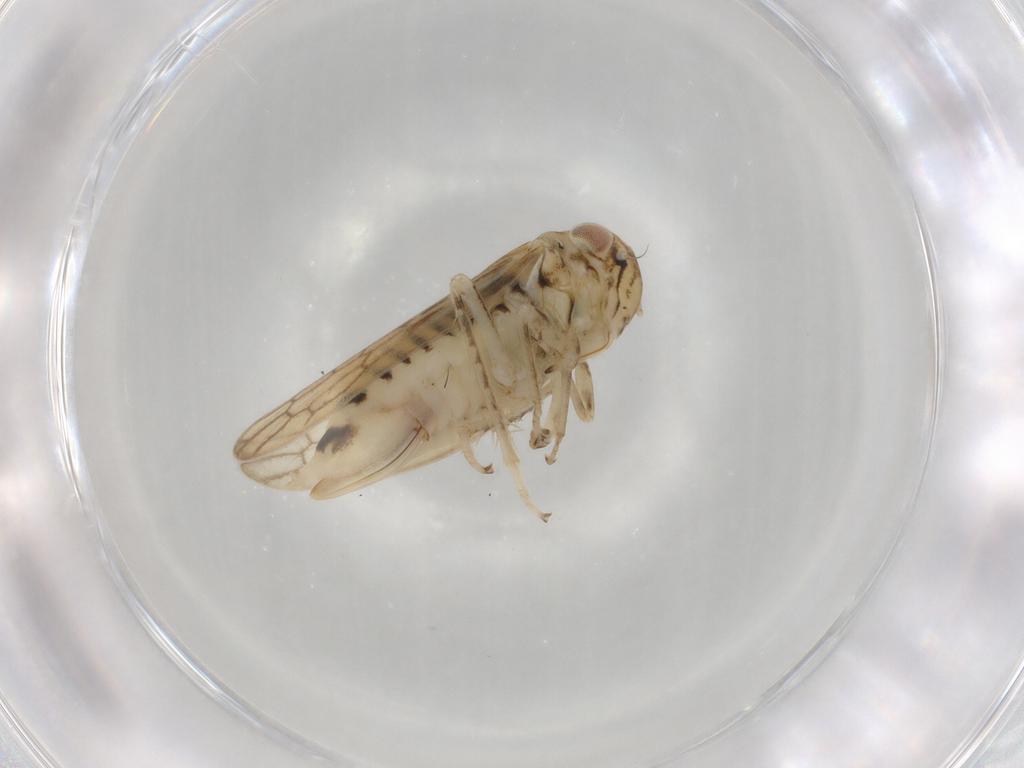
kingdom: Animalia
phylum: Arthropoda
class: Insecta
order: Hemiptera
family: Cicadellidae
